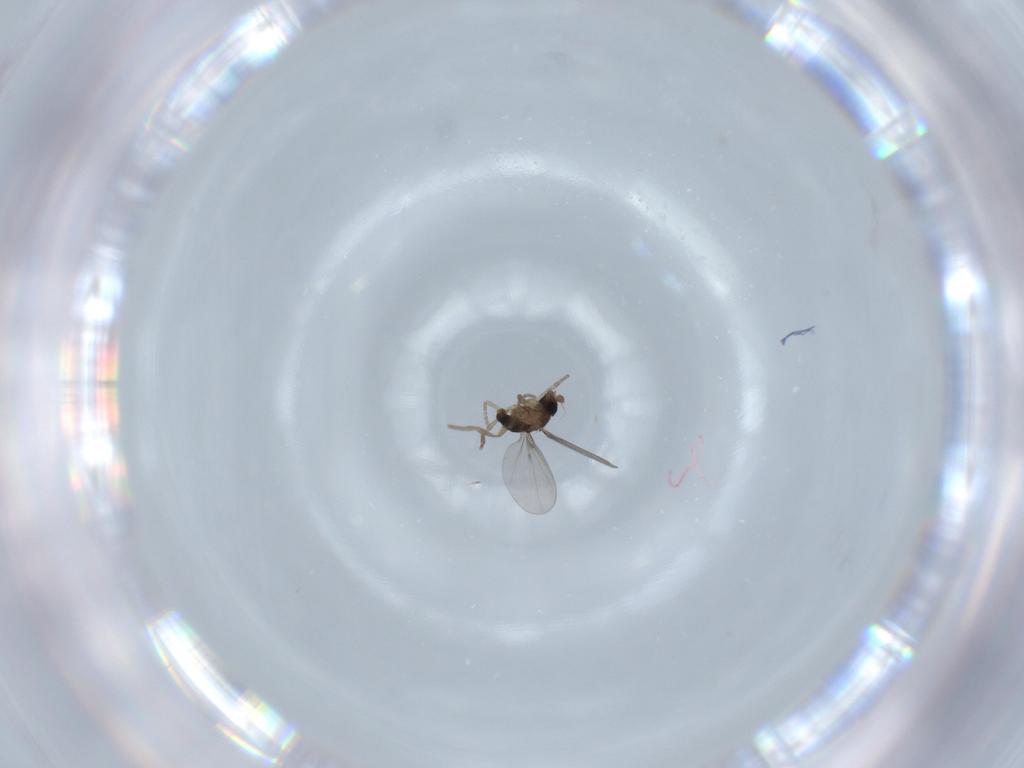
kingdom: Animalia
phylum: Arthropoda
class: Insecta
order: Diptera
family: Phoridae
